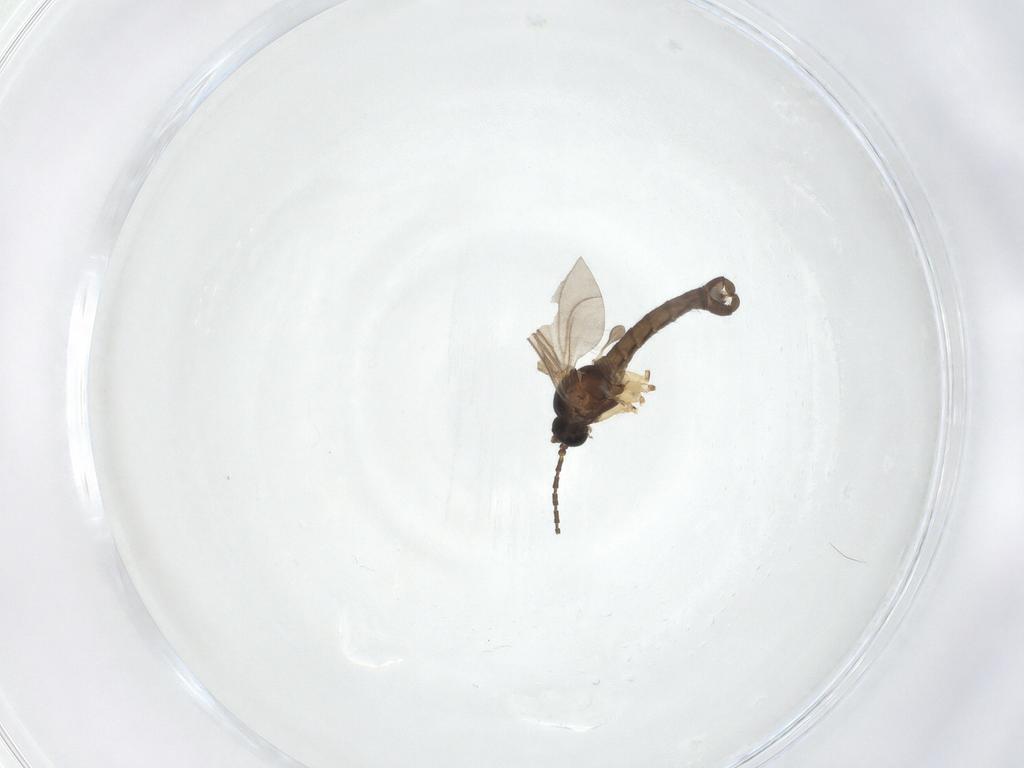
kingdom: Animalia
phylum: Arthropoda
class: Insecta
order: Diptera
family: Sciaridae
